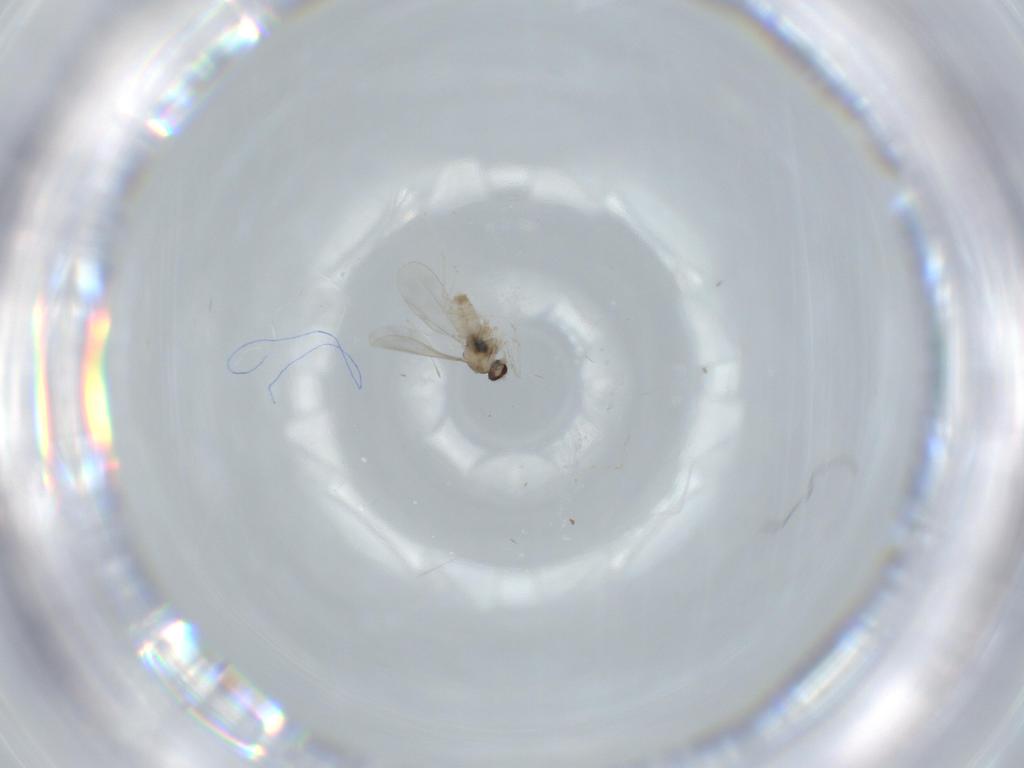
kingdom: Animalia
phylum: Arthropoda
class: Insecta
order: Diptera
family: Cecidomyiidae
